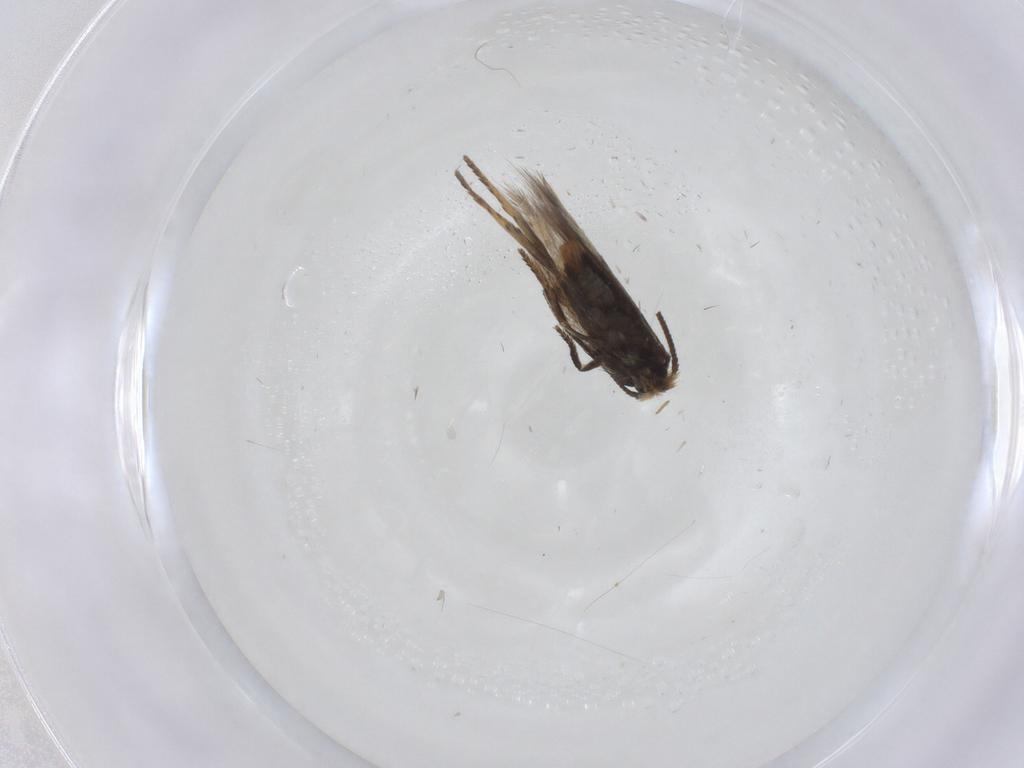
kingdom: Animalia
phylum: Arthropoda
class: Insecta
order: Lepidoptera
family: Nepticulidae
